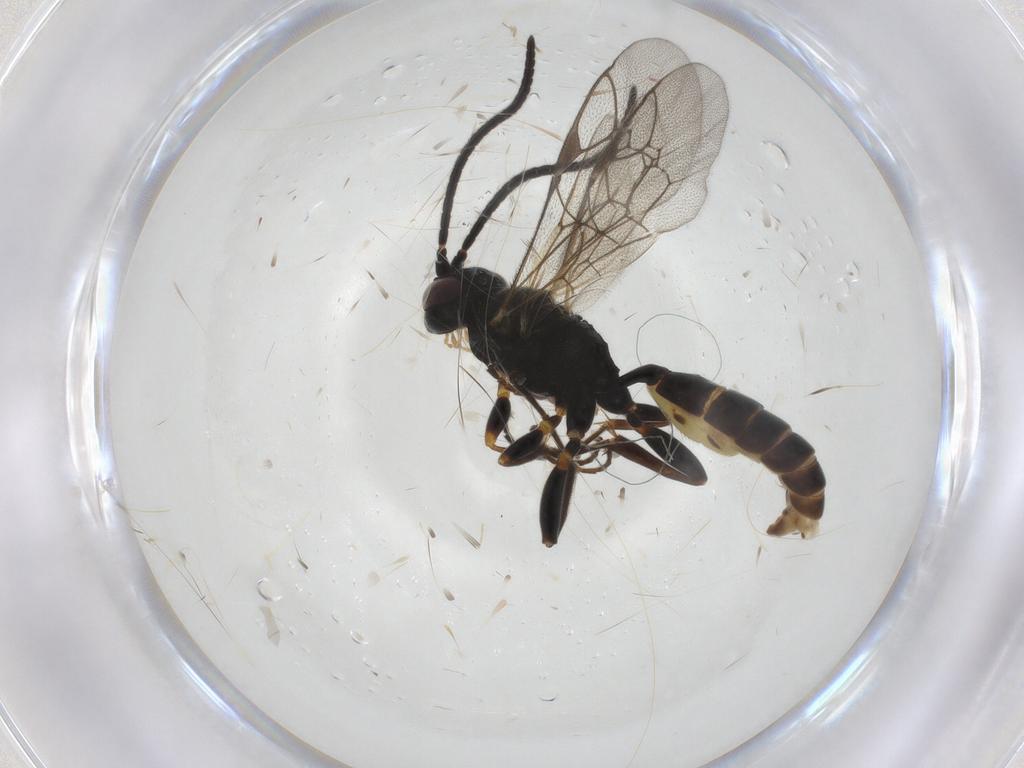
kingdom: Animalia
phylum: Arthropoda
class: Insecta
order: Hymenoptera
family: Ichneumonidae
